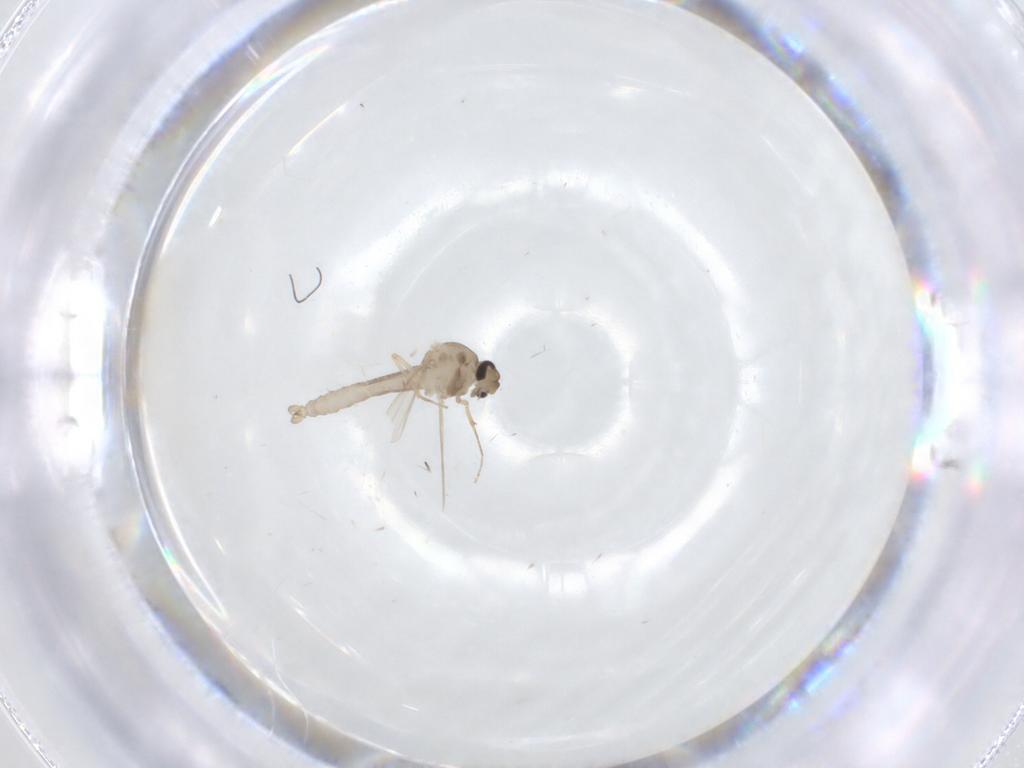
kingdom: Animalia
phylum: Arthropoda
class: Insecta
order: Diptera
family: Ceratopogonidae
